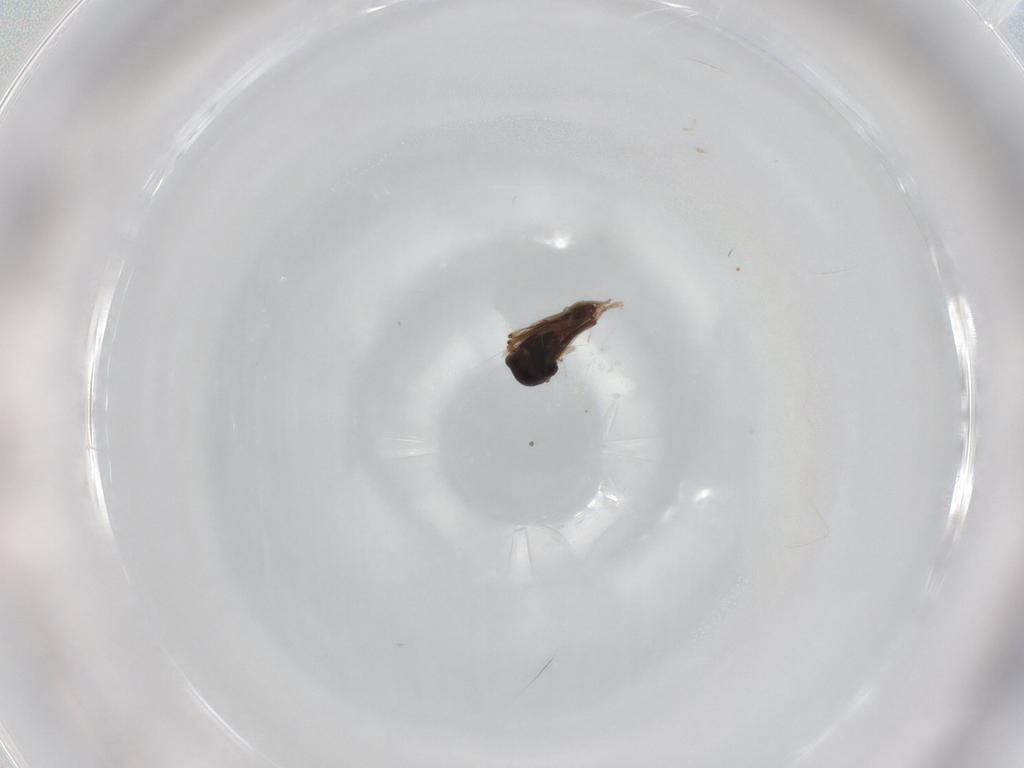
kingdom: Animalia
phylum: Arthropoda
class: Insecta
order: Diptera
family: Ceratopogonidae
